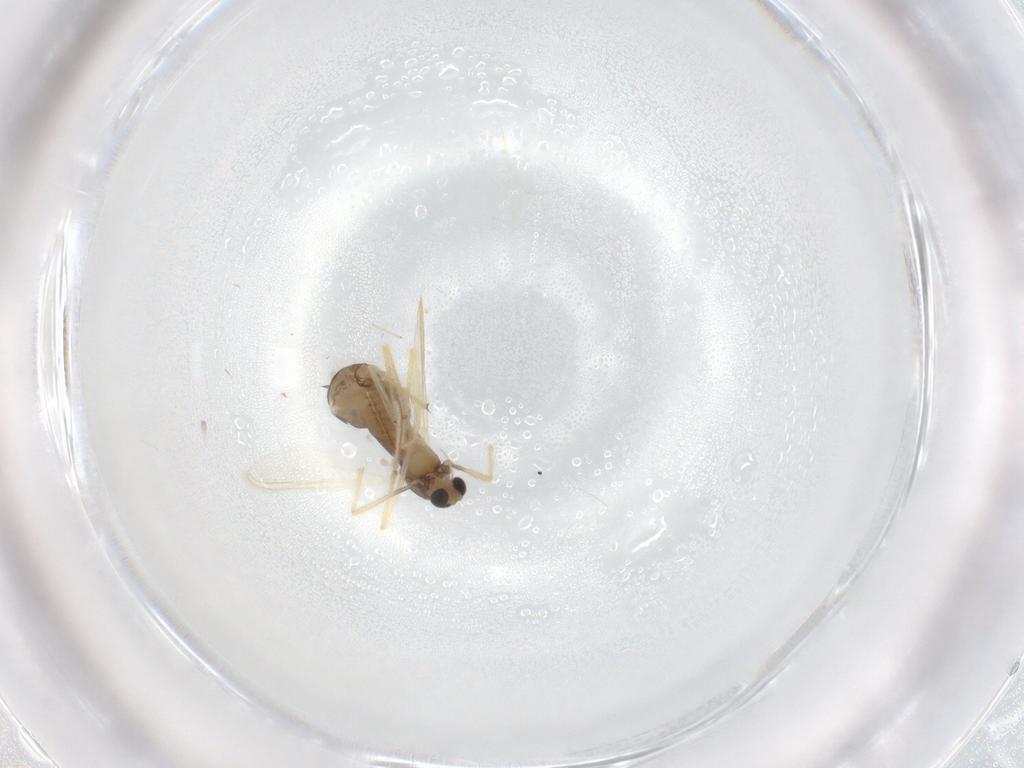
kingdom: Animalia
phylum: Arthropoda
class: Insecta
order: Diptera
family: Chironomidae
